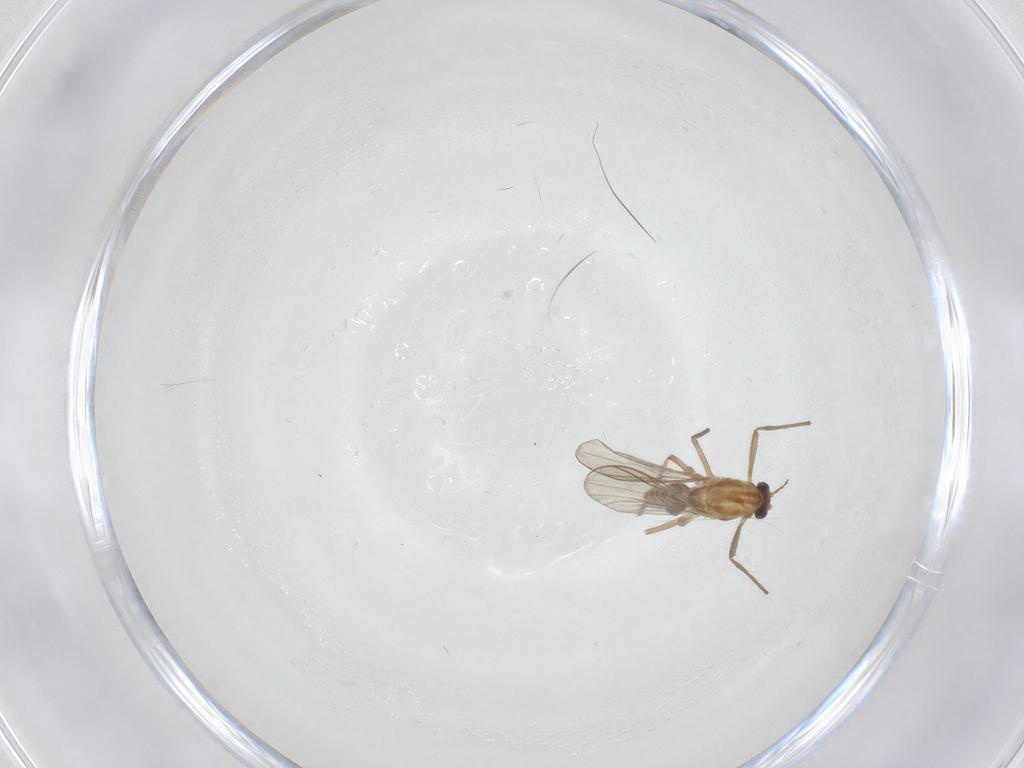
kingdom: Animalia
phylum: Arthropoda
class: Insecta
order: Diptera
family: Chironomidae
